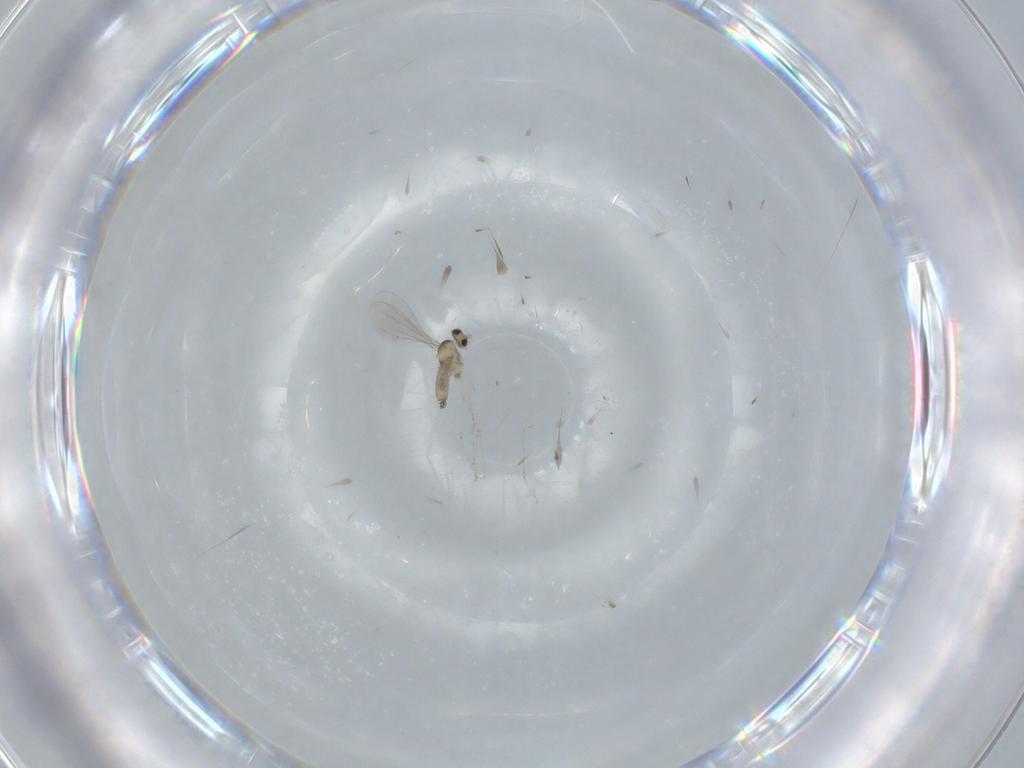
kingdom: Animalia
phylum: Arthropoda
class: Insecta
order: Diptera
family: Cecidomyiidae
